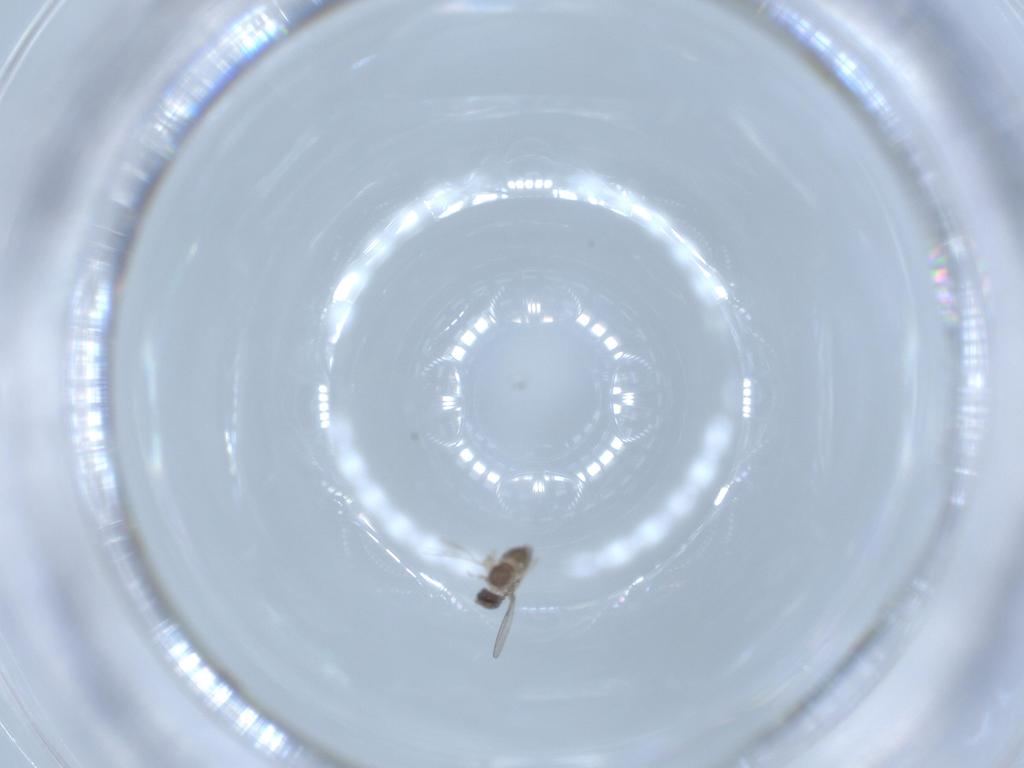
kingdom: Animalia
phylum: Arthropoda
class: Insecta
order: Diptera
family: Cecidomyiidae
